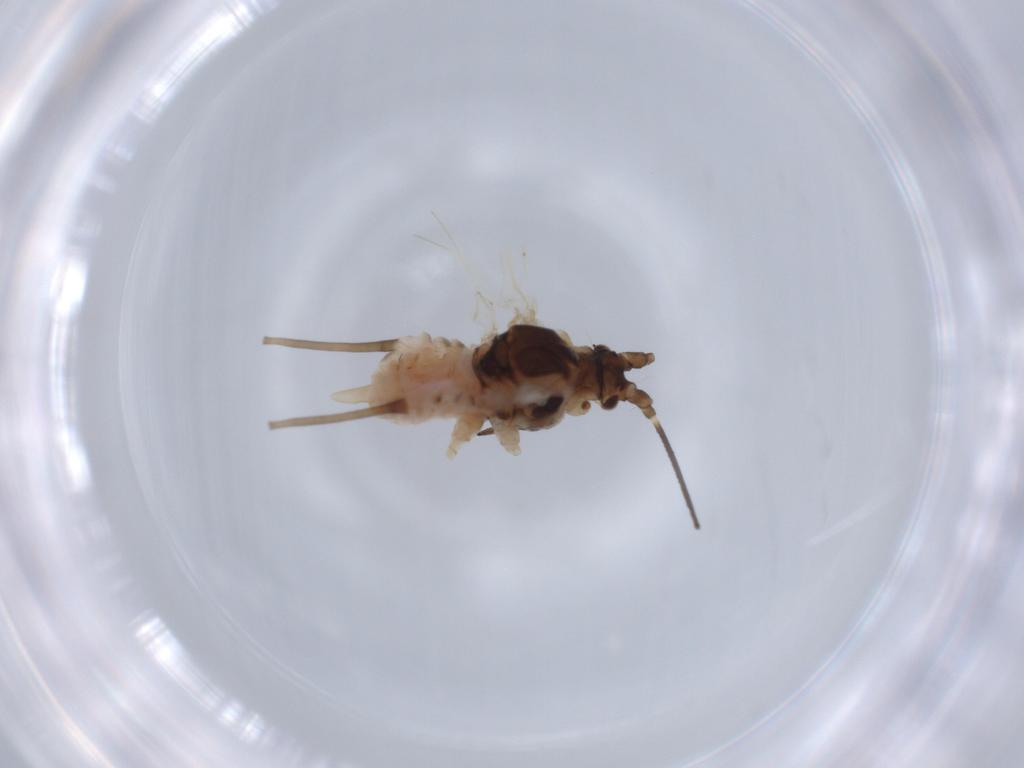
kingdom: Animalia
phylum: Arthropoda
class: Insecta
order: Hemiptera
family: Aphididae
